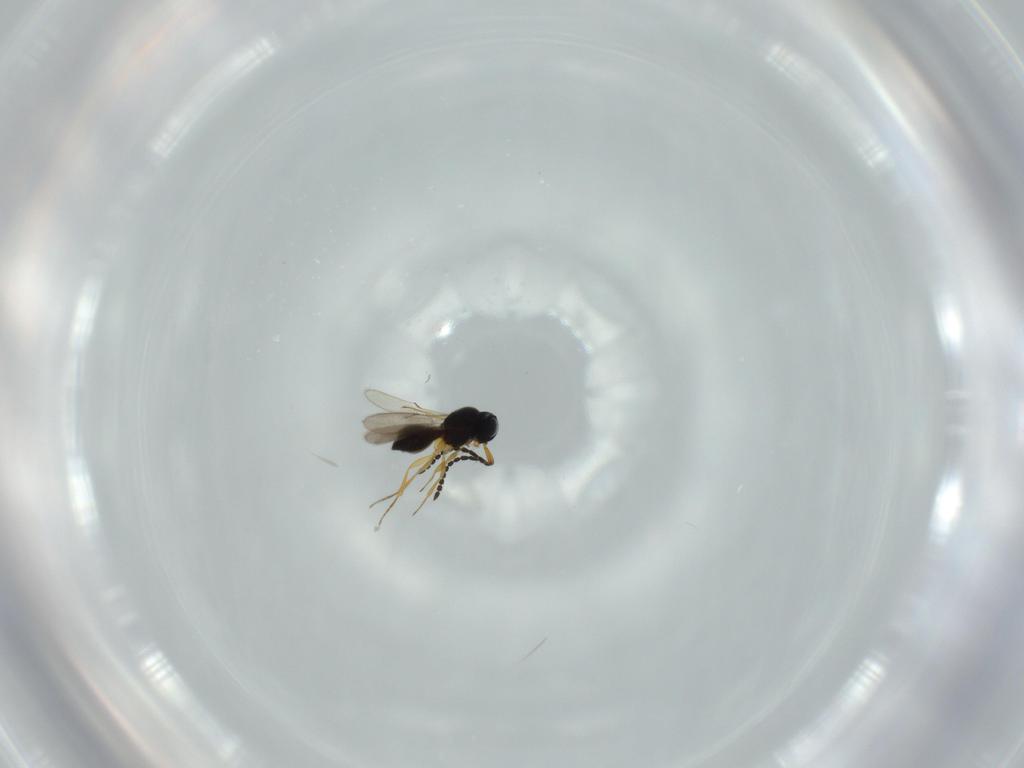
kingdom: Animalia
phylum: Arthropoda
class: Insecta
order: Hymenoptera
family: Scelionidae
